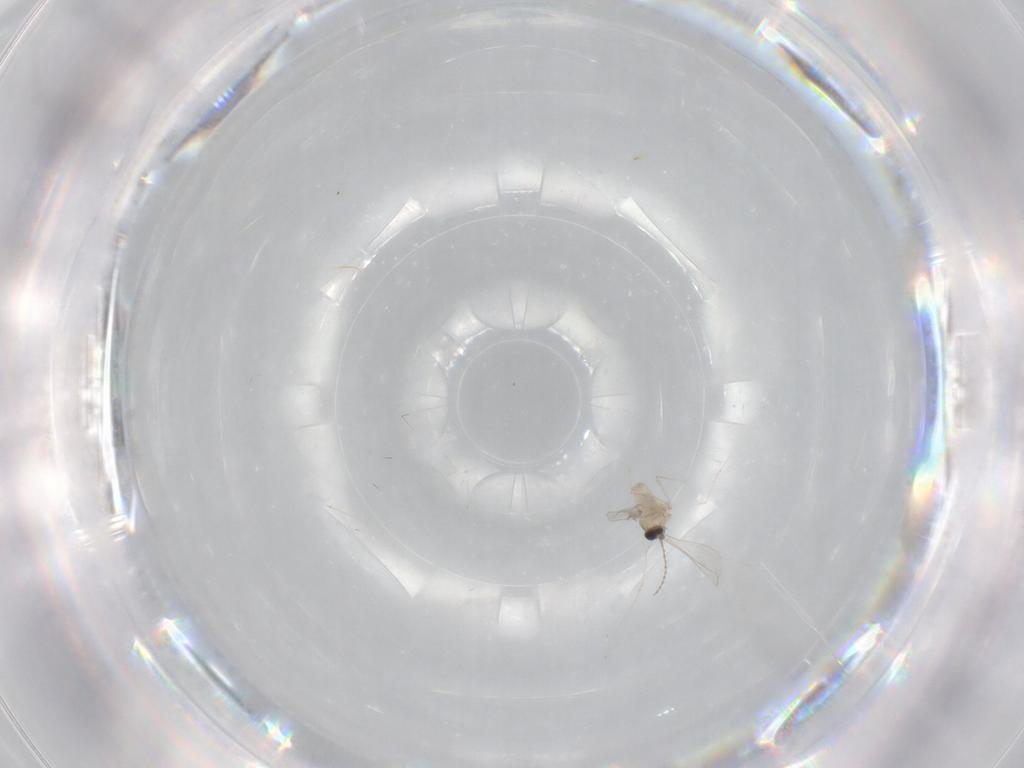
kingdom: Animalia
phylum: Arthropoda
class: Insecta
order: Diptera
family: Cecidomyiidae
